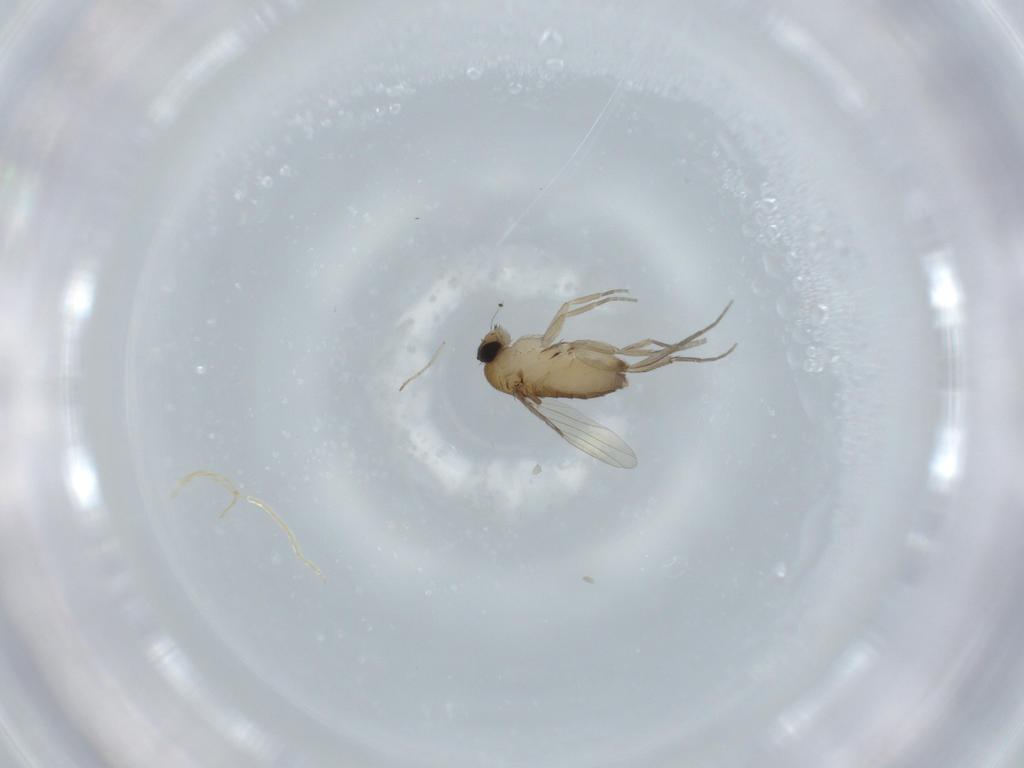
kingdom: Animalia
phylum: Arthropoda
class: Insecta
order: Diptera
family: Phoridae
